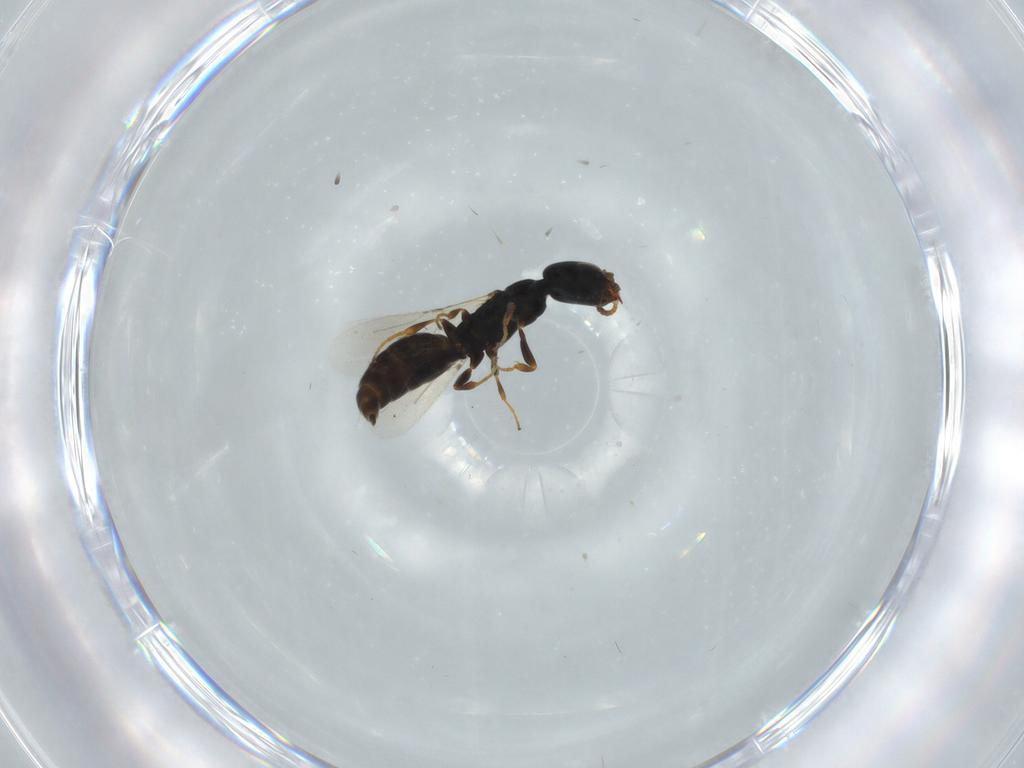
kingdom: Animalia
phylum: Arthropoda
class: Insecta
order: Hymenoptera
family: Bethylidae
